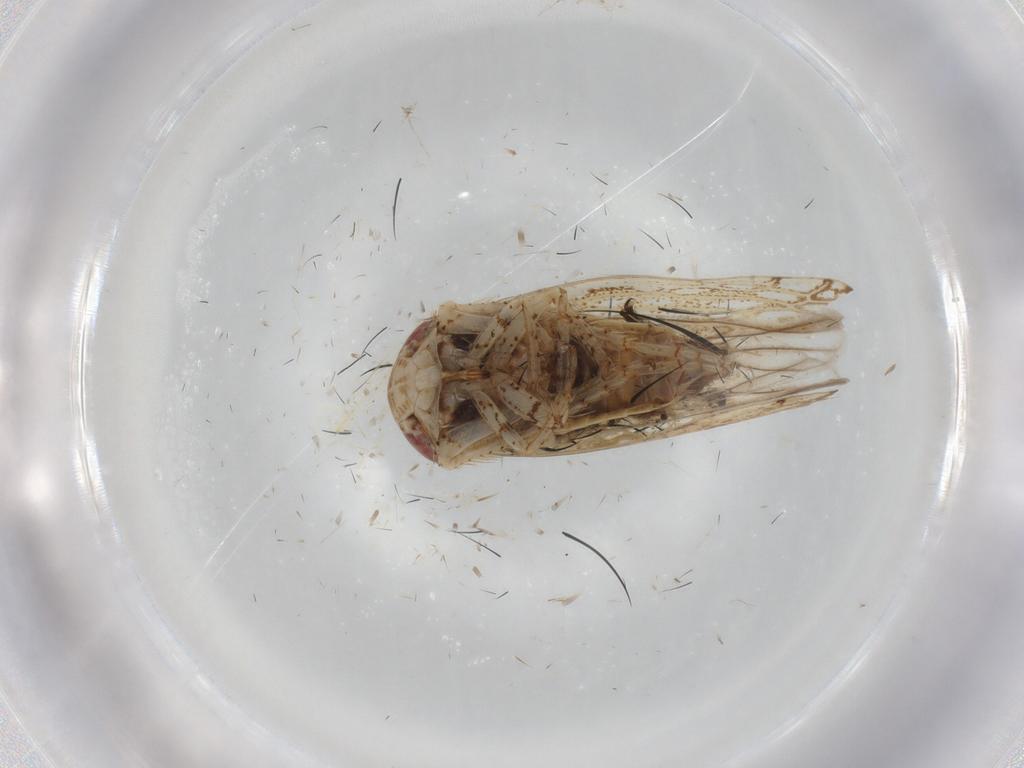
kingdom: Animalia
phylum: Arthropoda
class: Insecta
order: Hemiptera
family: Cicadellidae
